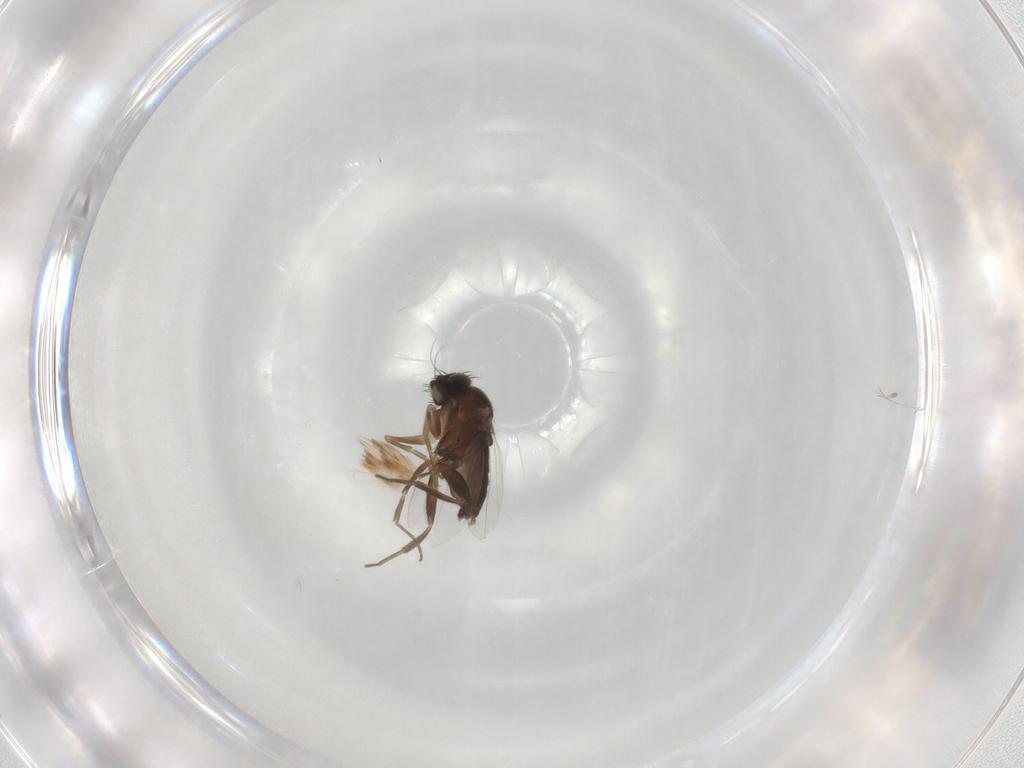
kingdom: Animalia
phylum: Arthropoda
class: Insecta
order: Diptera
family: Phoridae
